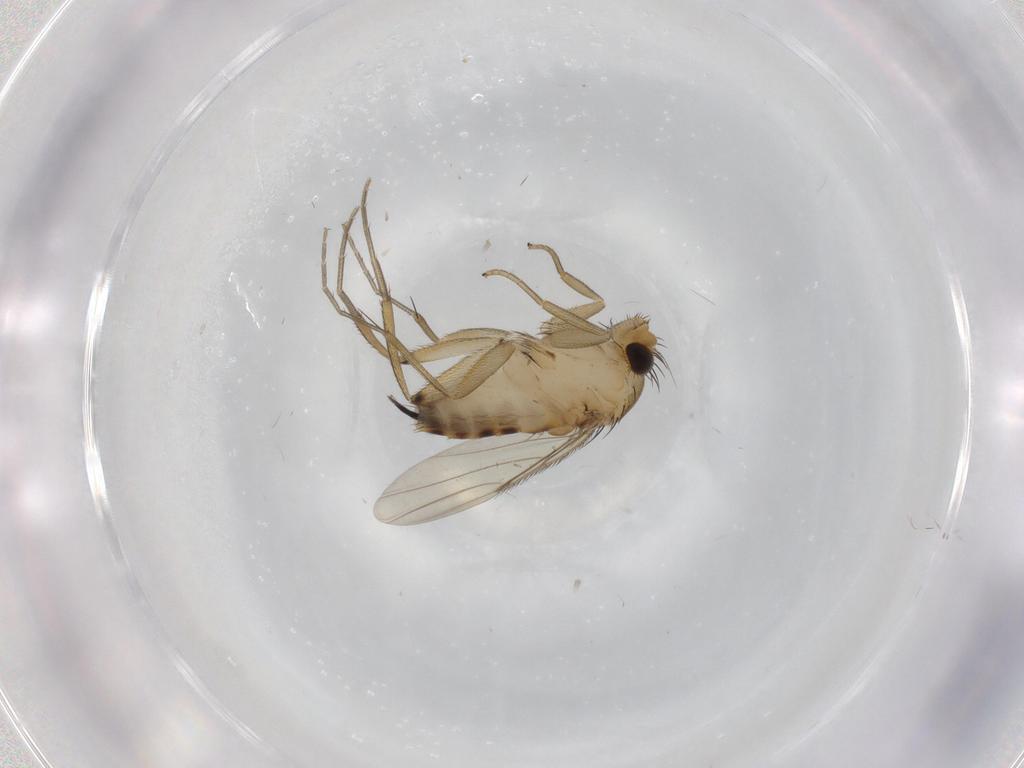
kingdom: Animalia
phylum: Arthropoda
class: Insecta
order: Diptera
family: Phoridae
